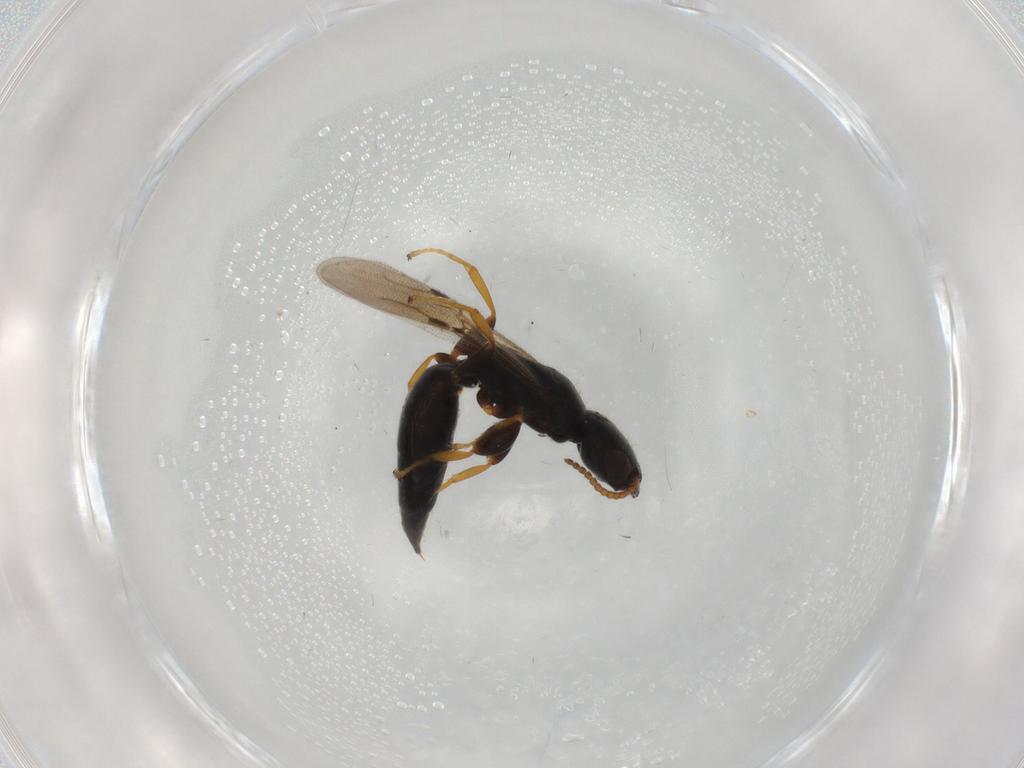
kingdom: Animalia
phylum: Arthropoda
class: Insecta
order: Hymenoptera
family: Bethylidae
